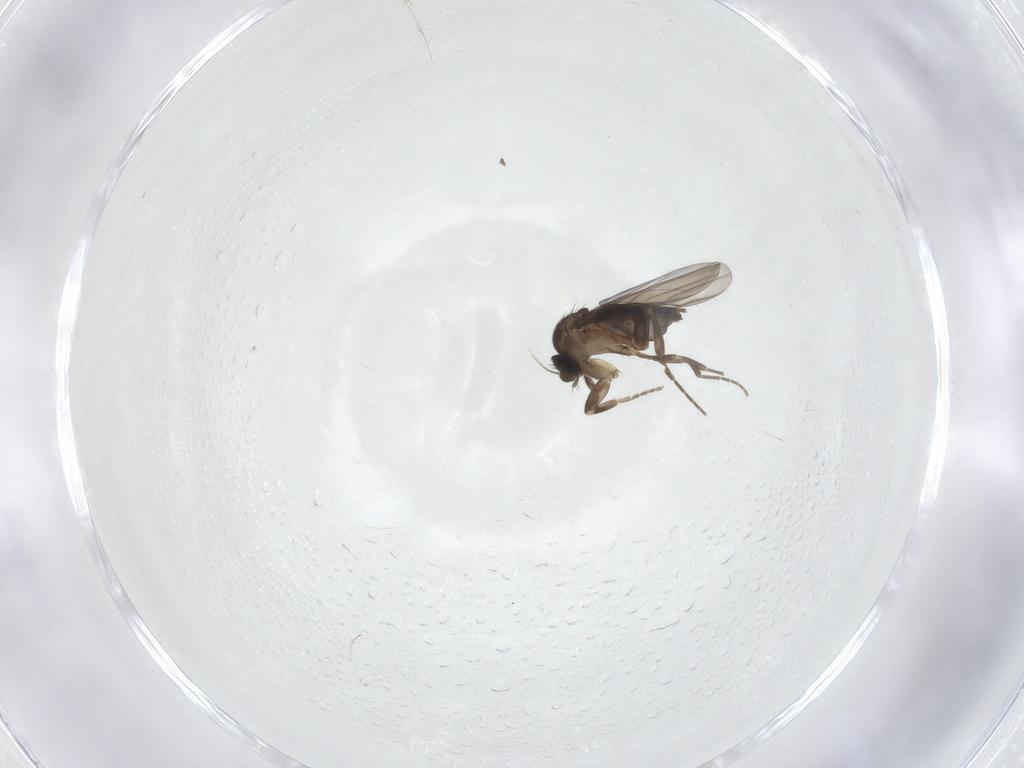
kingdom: Animalia
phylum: Arthropoda
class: Insecta
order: Diptera
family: Phoridae
